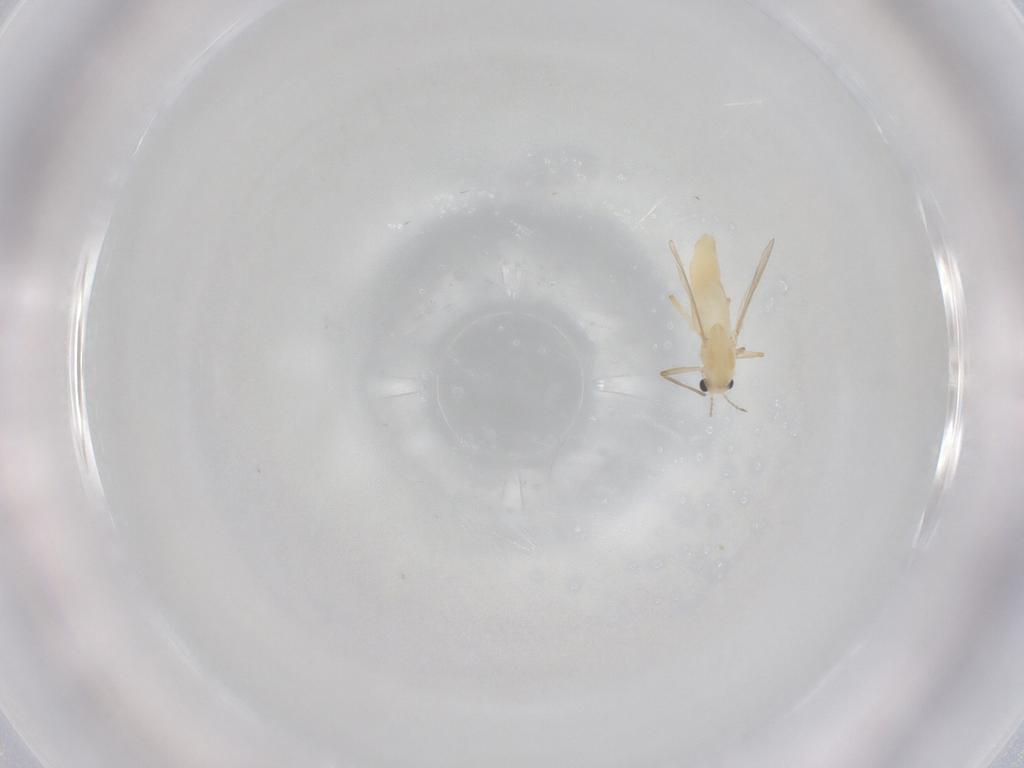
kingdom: Animalia
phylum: Arthropoda
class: Insecta
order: Diptera
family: Chironomidae
